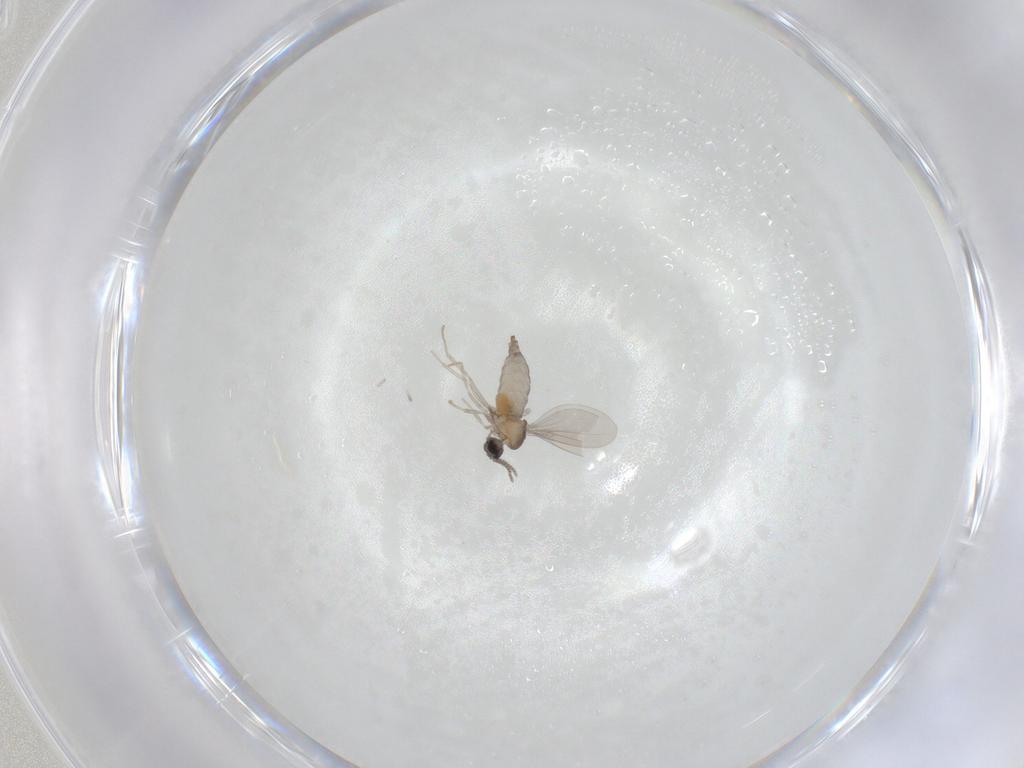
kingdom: Animalia
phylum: Arthropoda
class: Insecta
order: Diptera
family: Cecidomyiidae
